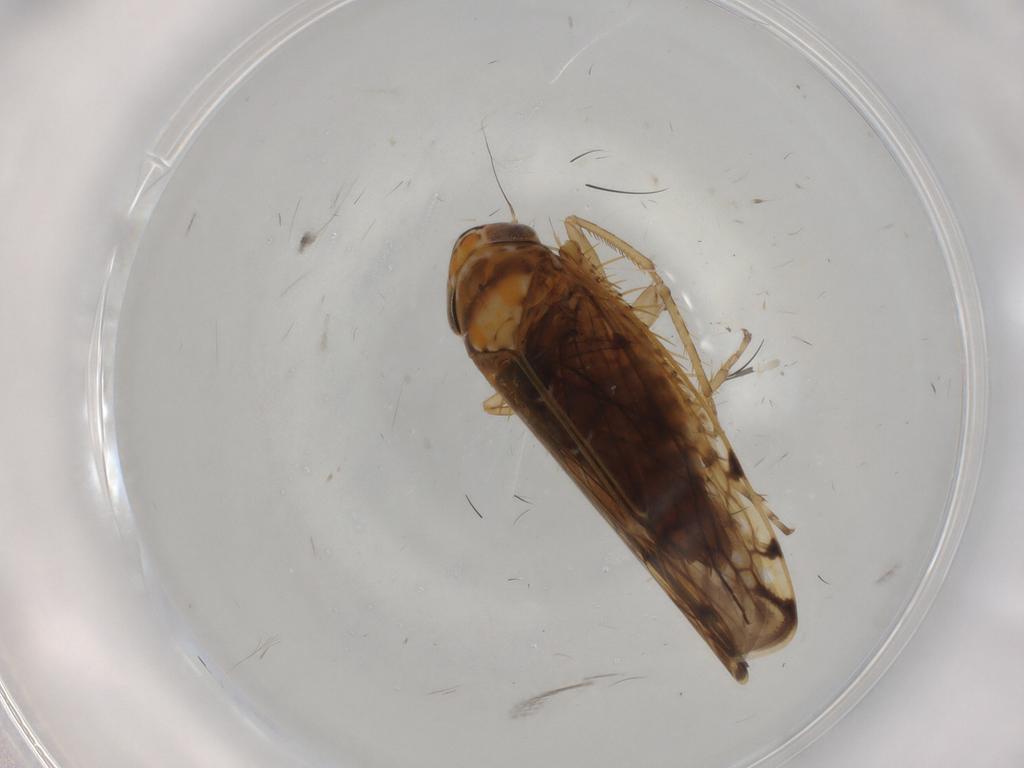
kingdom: Animalia
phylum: Arthropoda
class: Insecta
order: Hemiptera
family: Cicadellidae
